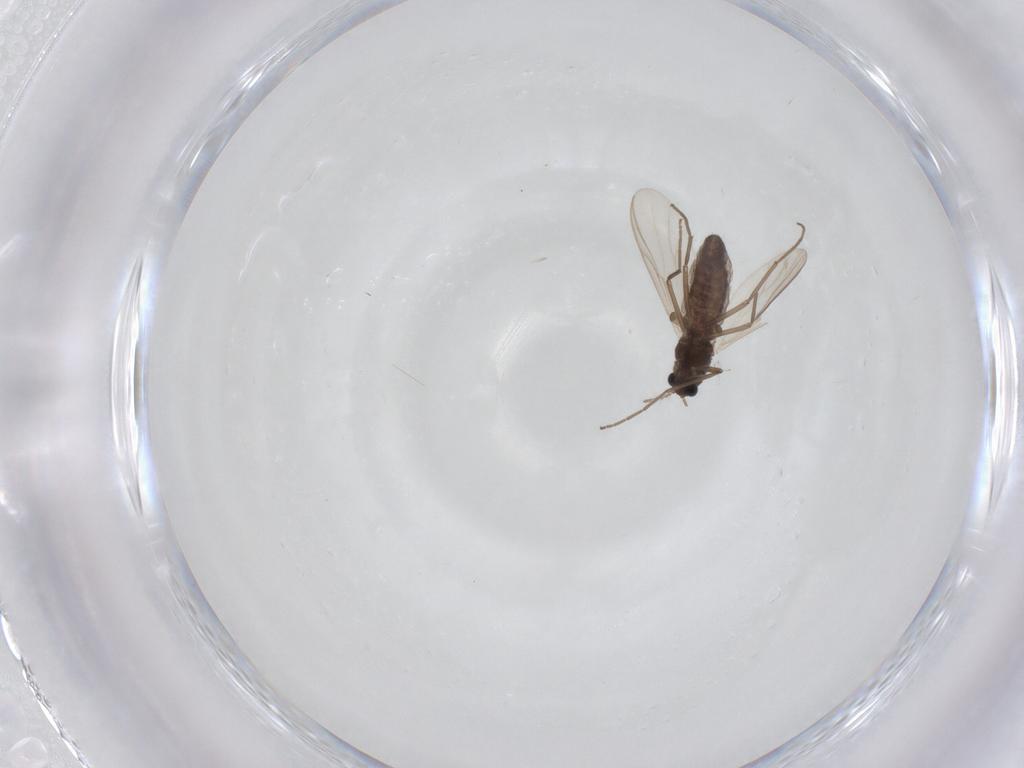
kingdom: Animalia
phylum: Arthropoda
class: Insecta
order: Diptera
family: Chironomidae
